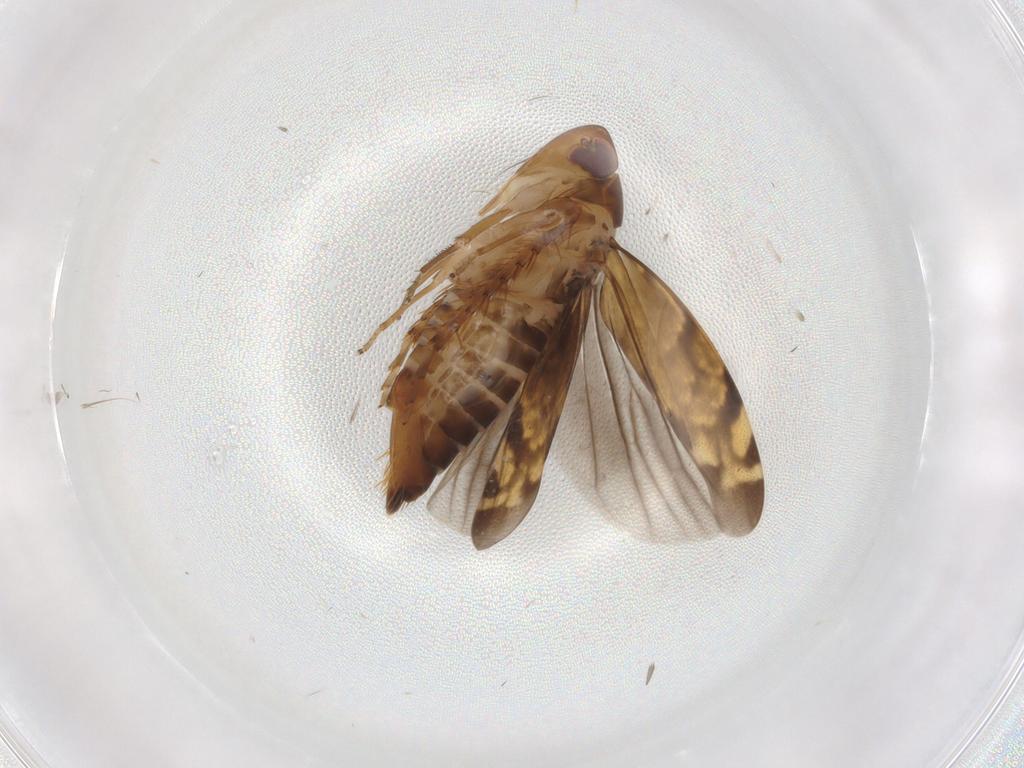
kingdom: Animalia
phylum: Arthropoda
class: Insecta
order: Hemiptera
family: Cicadellidae
